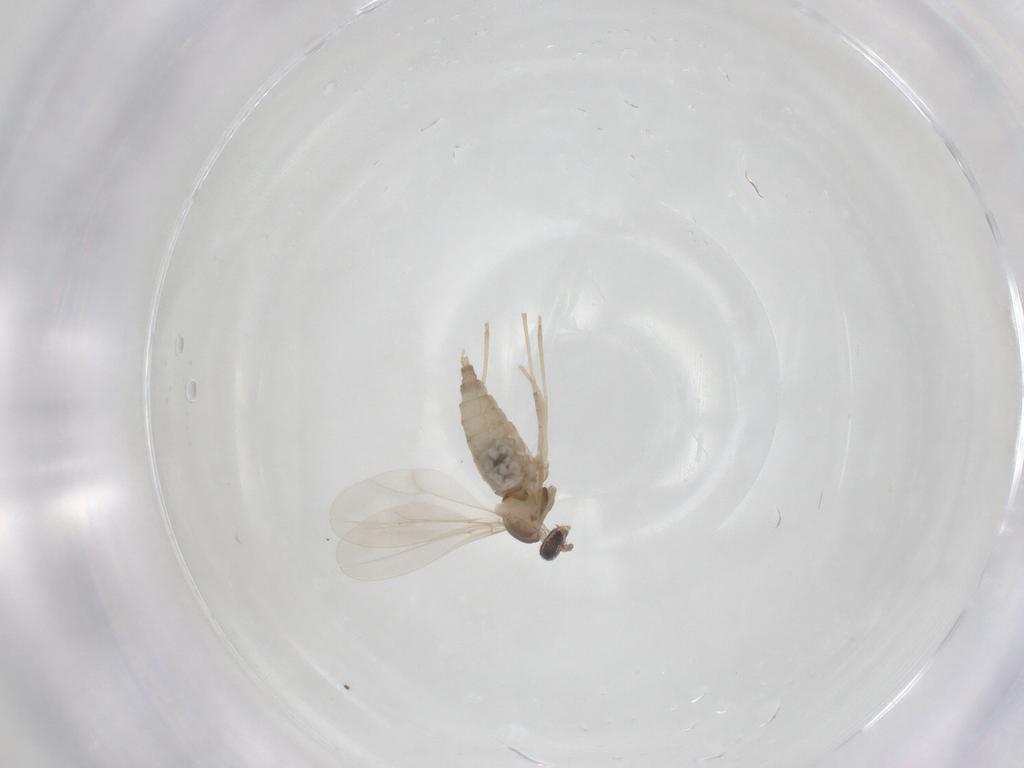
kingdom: Animalia
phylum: Arthropoda
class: Insecta
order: Diptera
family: Cecidomyiidae
